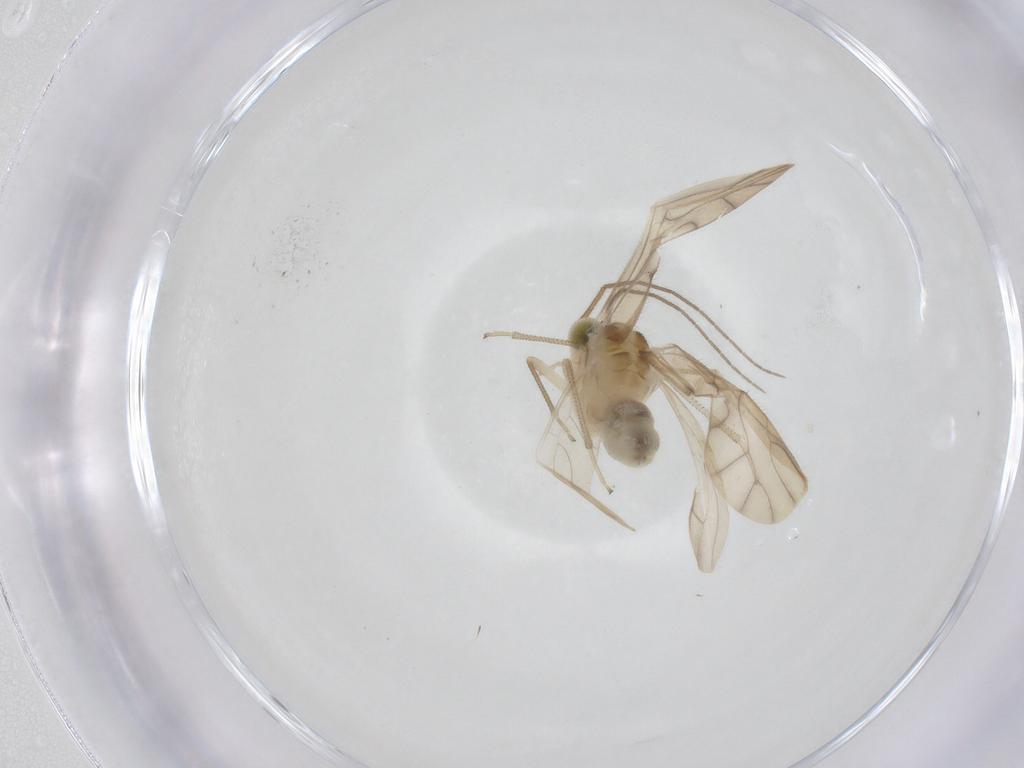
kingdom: Animalia
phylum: Arthropoda
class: Insecta
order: Psocodea
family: Caeciliusidae
